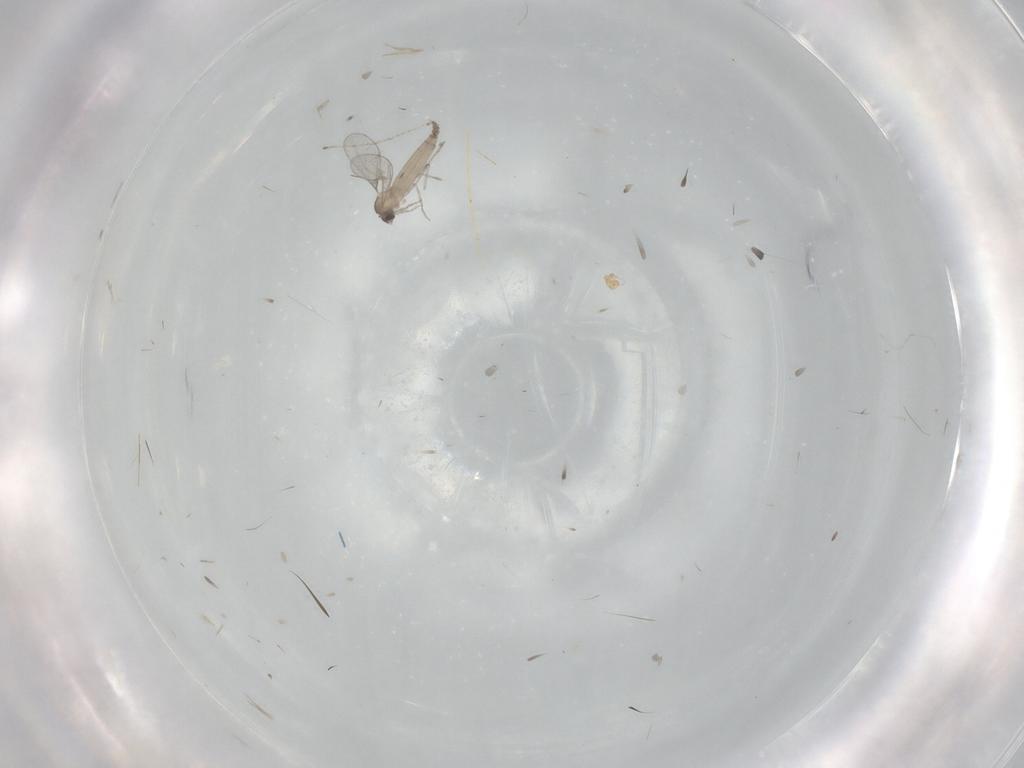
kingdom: Animalia
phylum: Arthropoda
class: Insecta
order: Diptera
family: Cecidomyiidae
